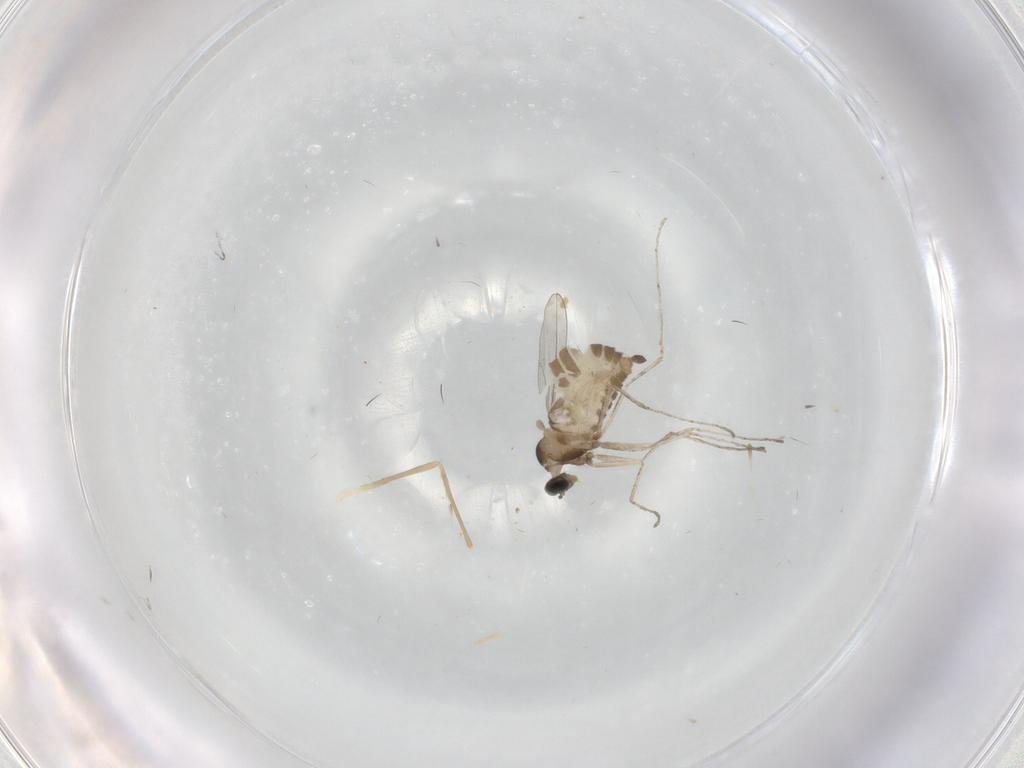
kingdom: Animalia
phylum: Arthropoda
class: Insecta
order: Diptera
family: Cecidomyiidae
